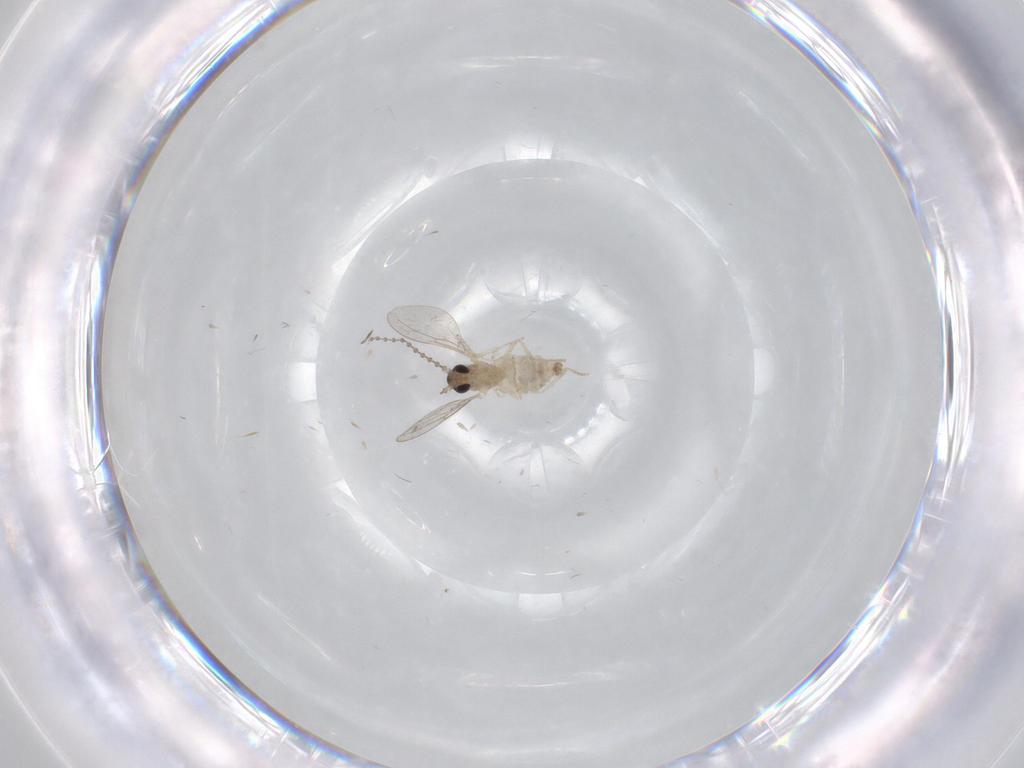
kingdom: Animalia
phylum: Arthropoda
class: Insecta
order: Diptera
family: Cecidomyiidae
